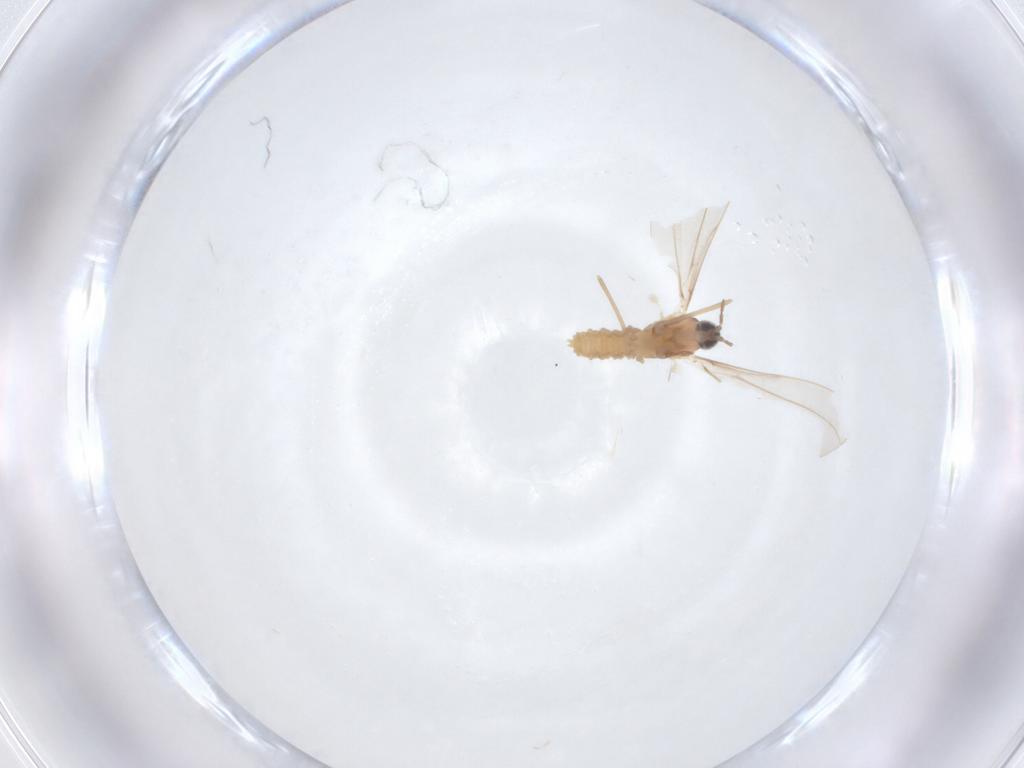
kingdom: Animalia
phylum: Arthropoda
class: Insecta
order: Diptera
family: Cecidomyiidae
